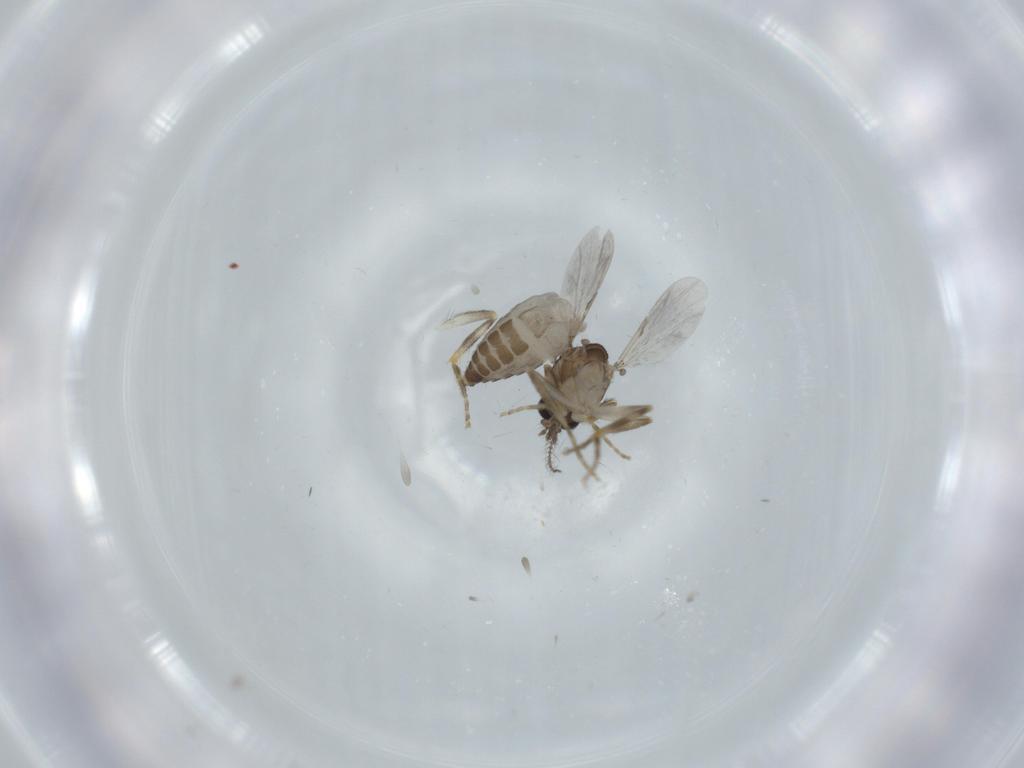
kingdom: Animalia
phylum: Arthropoda
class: Insecta
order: Diptera
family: Ceratopogonidae
